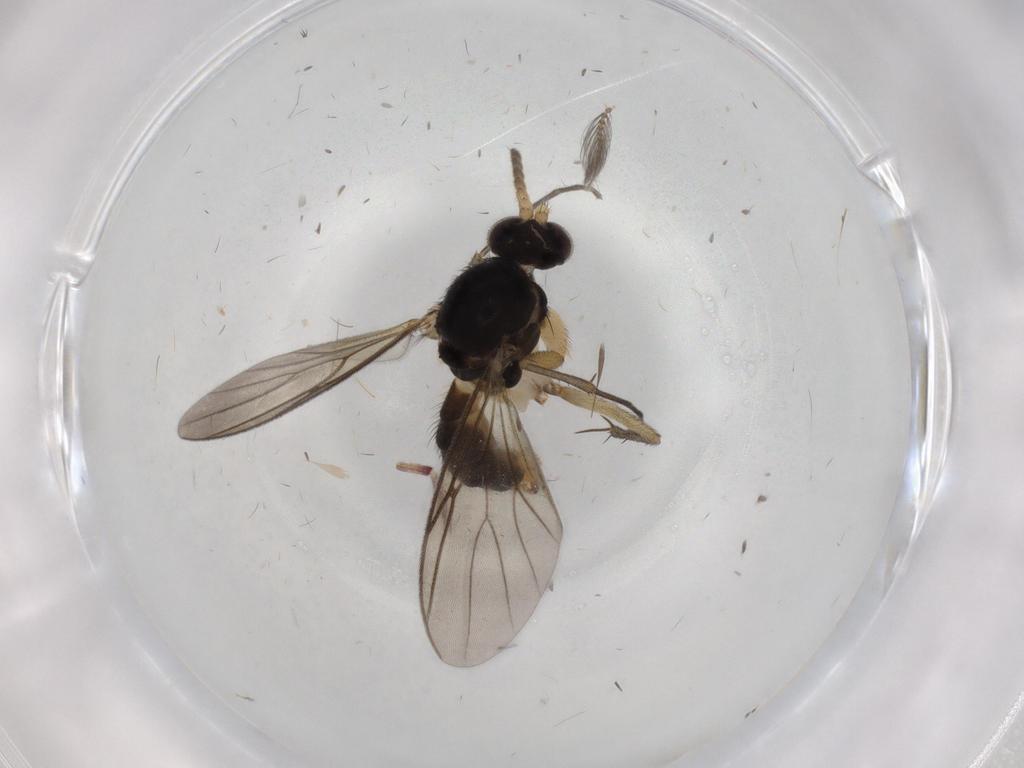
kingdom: Animalia
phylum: Arthropoda
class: Insecta
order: Diptera
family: Mycetophilidae
